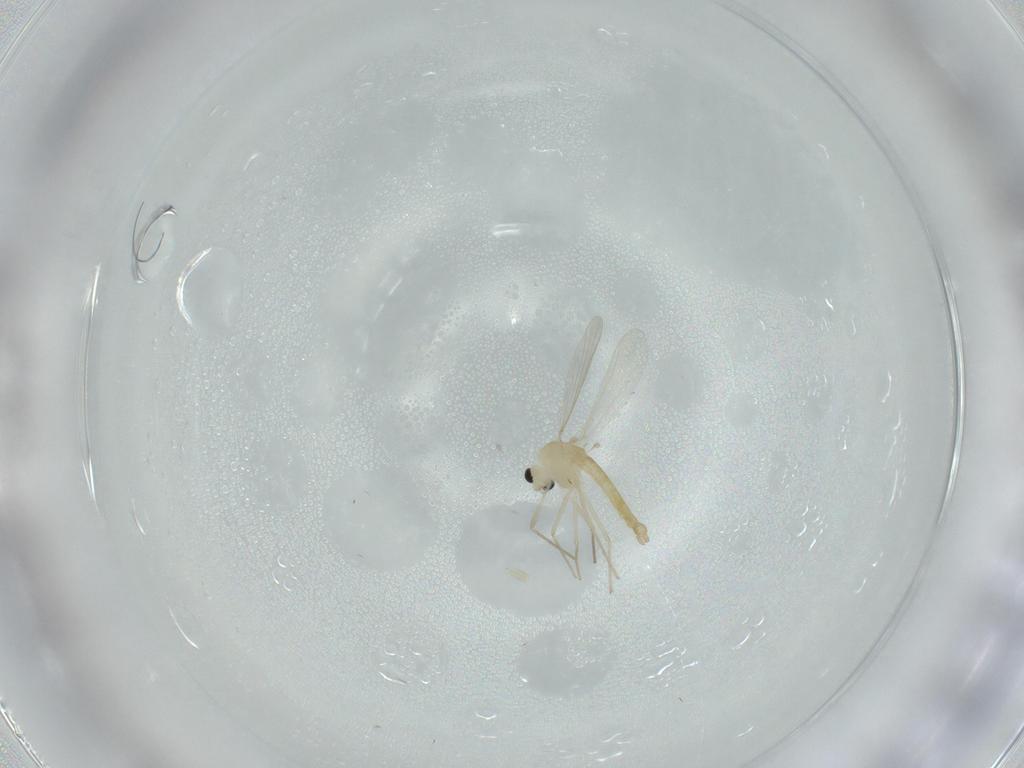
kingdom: Animalia
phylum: Arthropoda
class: Insecta
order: Diptera
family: Chironomidae
